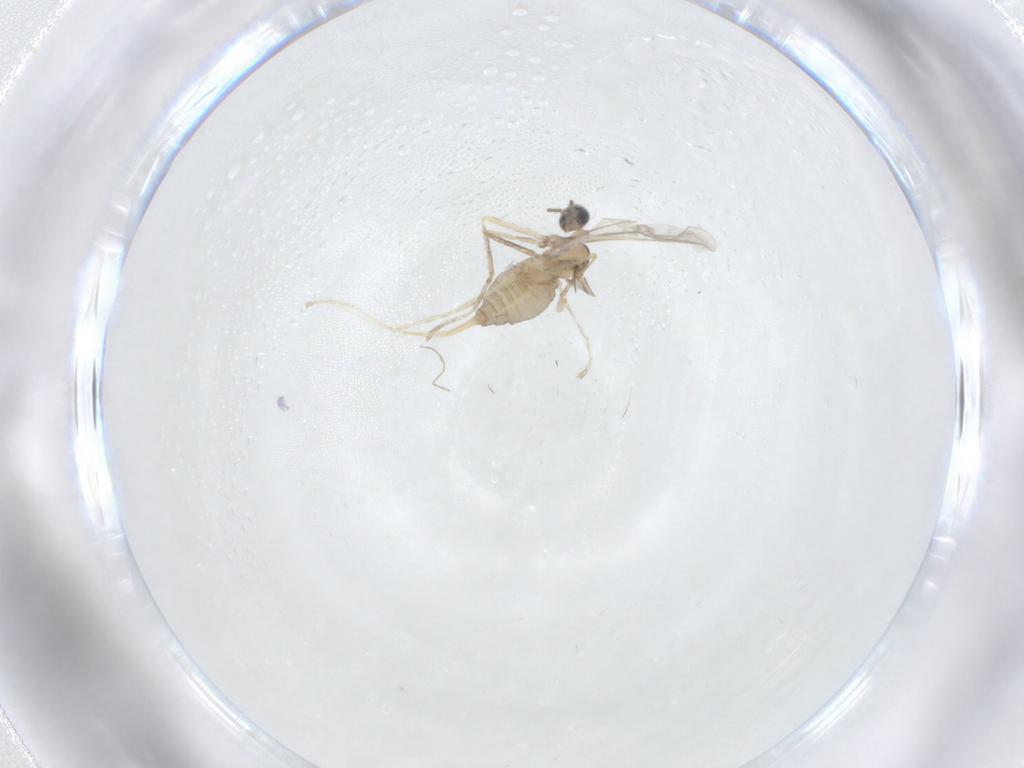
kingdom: Animalia
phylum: Arthropoda
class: Insecta
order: Diptera
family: Cecidomyiidae
